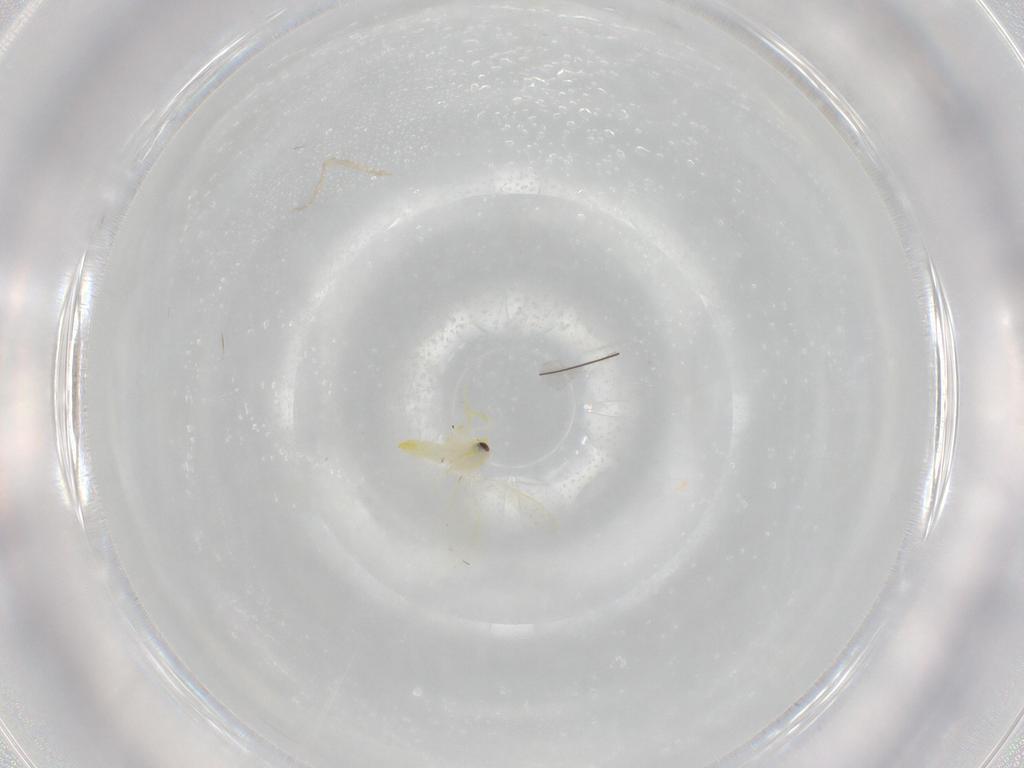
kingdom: Animalia
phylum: Arthropoda
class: Insecta
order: Hemiptera
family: Aleyrodidae
